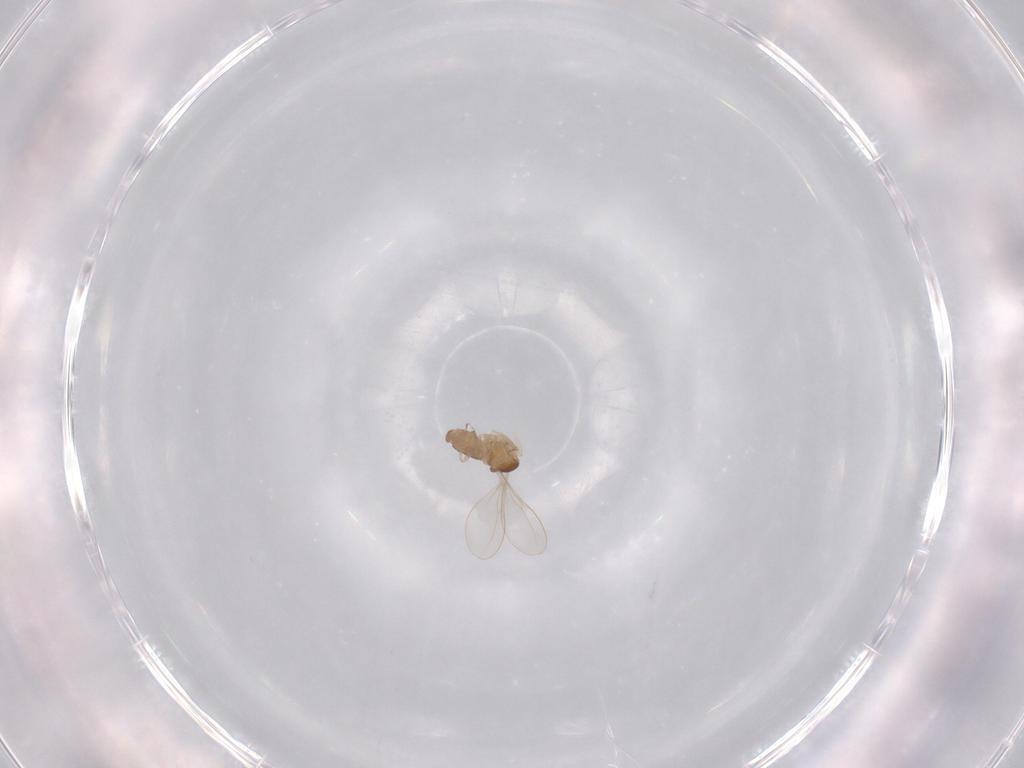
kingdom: Animalia
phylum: Arthropoda
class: Insecta
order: Diptera
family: Cecidomyiidae
